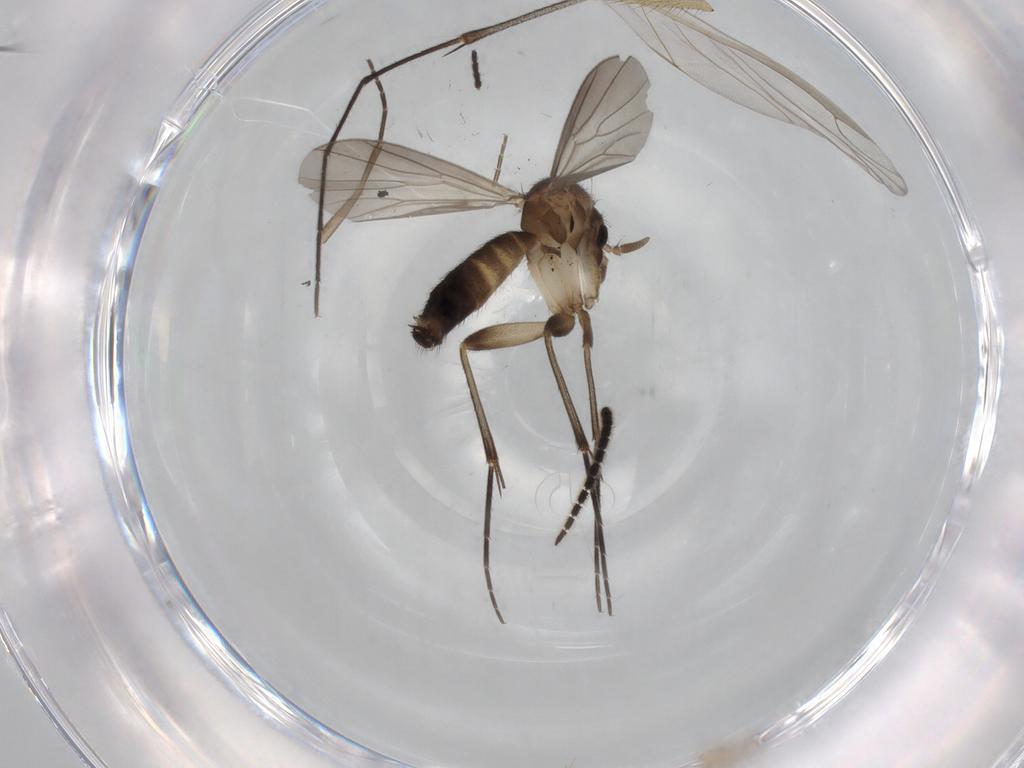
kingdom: Animalia
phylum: Arthropoda
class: Insecta
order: Diptera
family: Mycetophilidae
